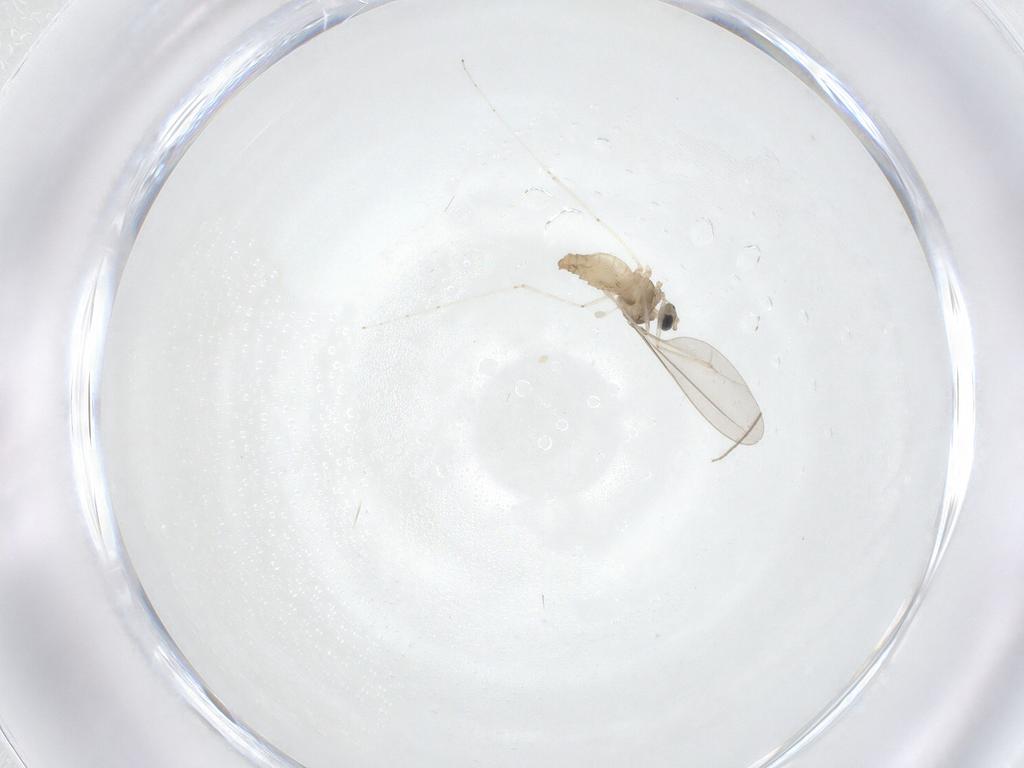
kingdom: Animalia
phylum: Arthropoda
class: Insecta
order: Diptera
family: Chironomidae
